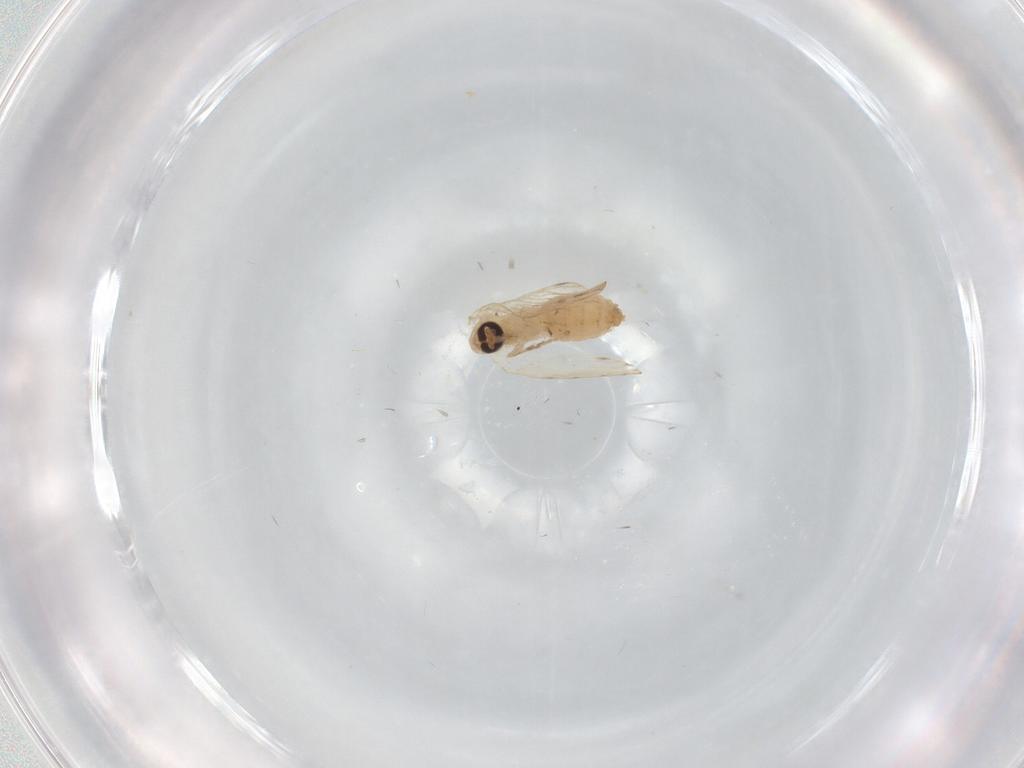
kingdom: Animalia
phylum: Arthropoda
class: Insecta
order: Diptera
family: Psychodidae
